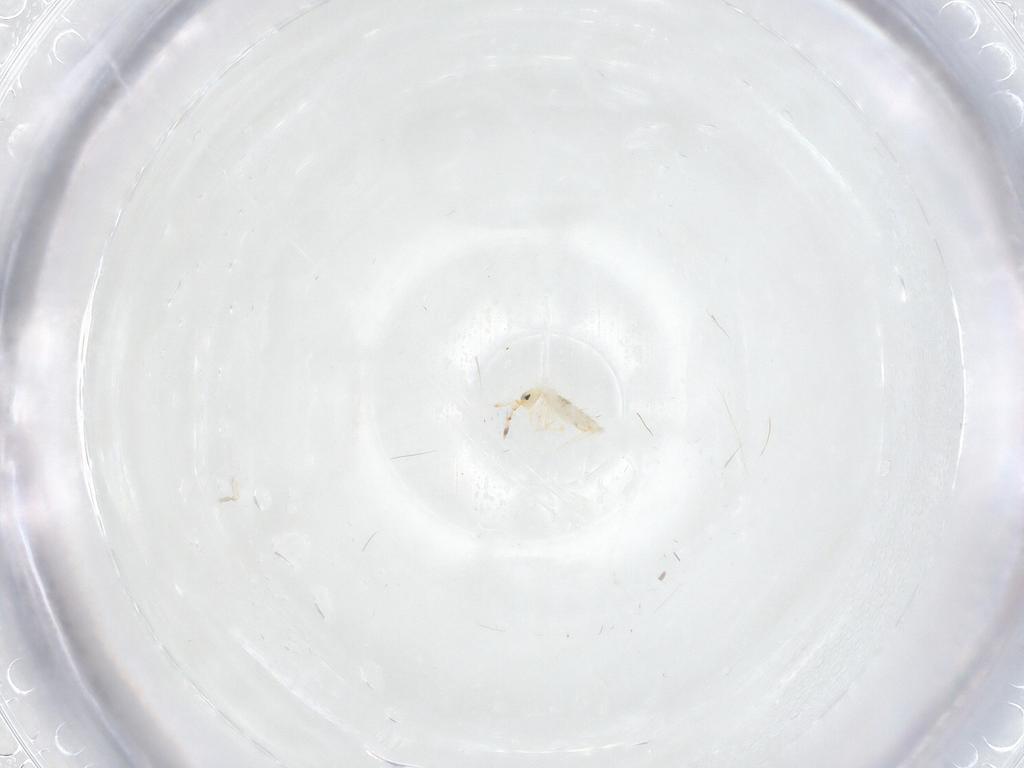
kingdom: Animalia
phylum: Arthropoda
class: Collembola
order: Entomobryomorpha
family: Entomobryidae
